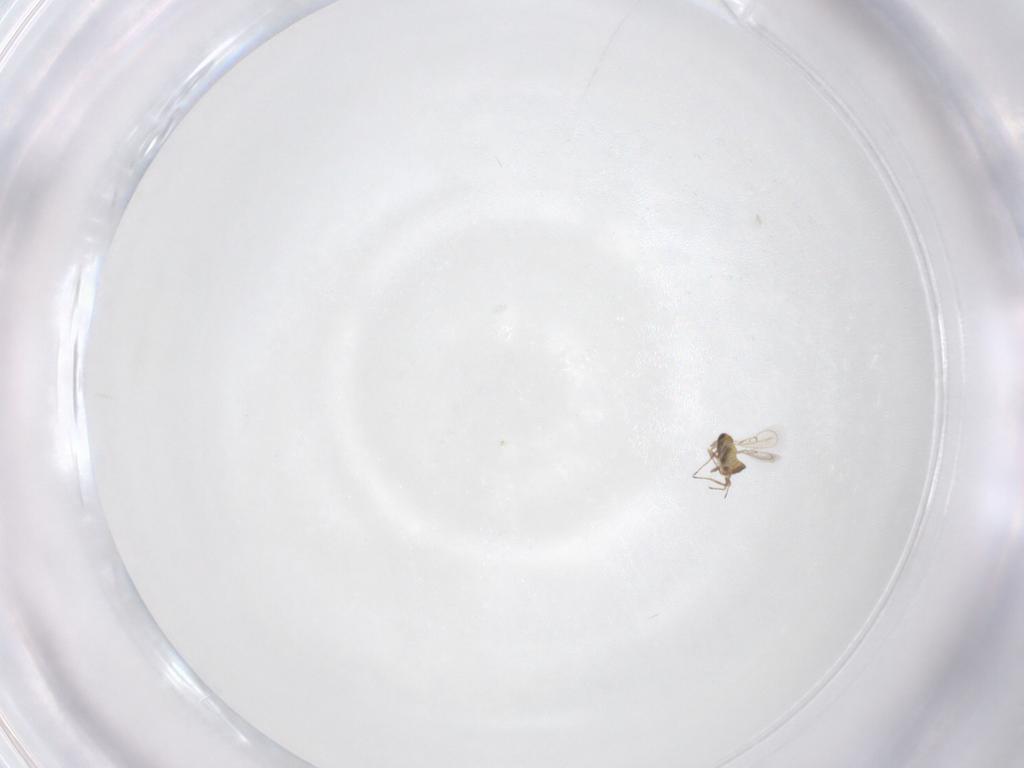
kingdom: Animalia
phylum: Arthropoda
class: Insecta
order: Hymenoptera
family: Trichogrammatidae
